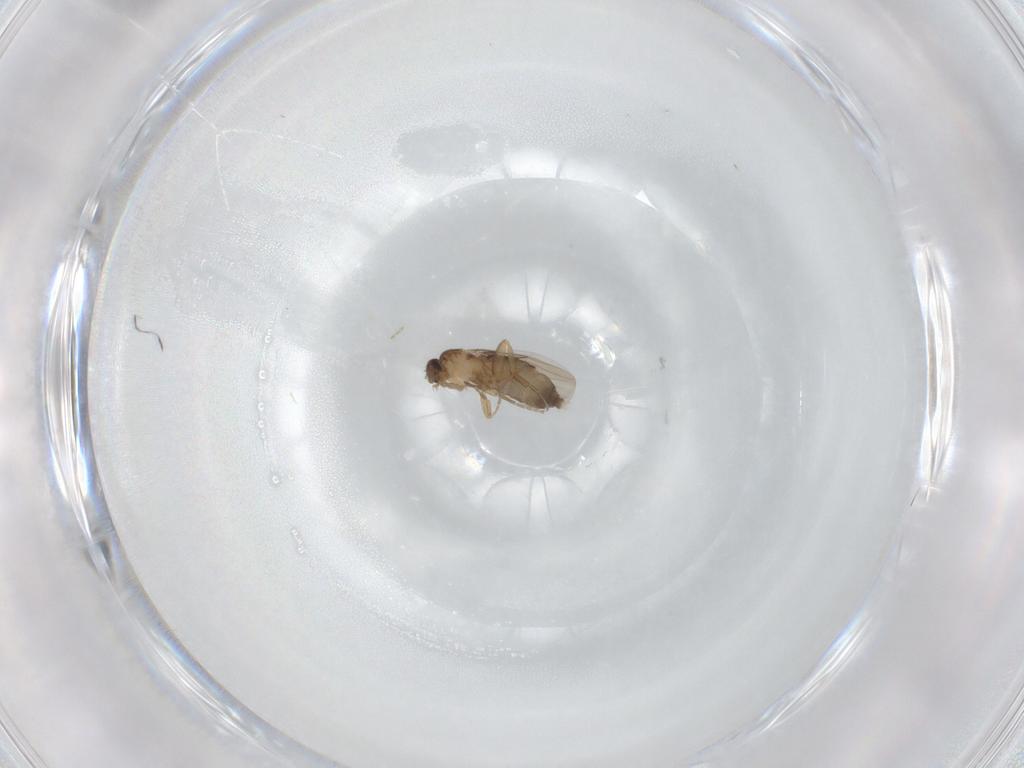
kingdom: Animalia
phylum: Arthropoda
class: Insecta
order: Diptera
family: Phoridae
